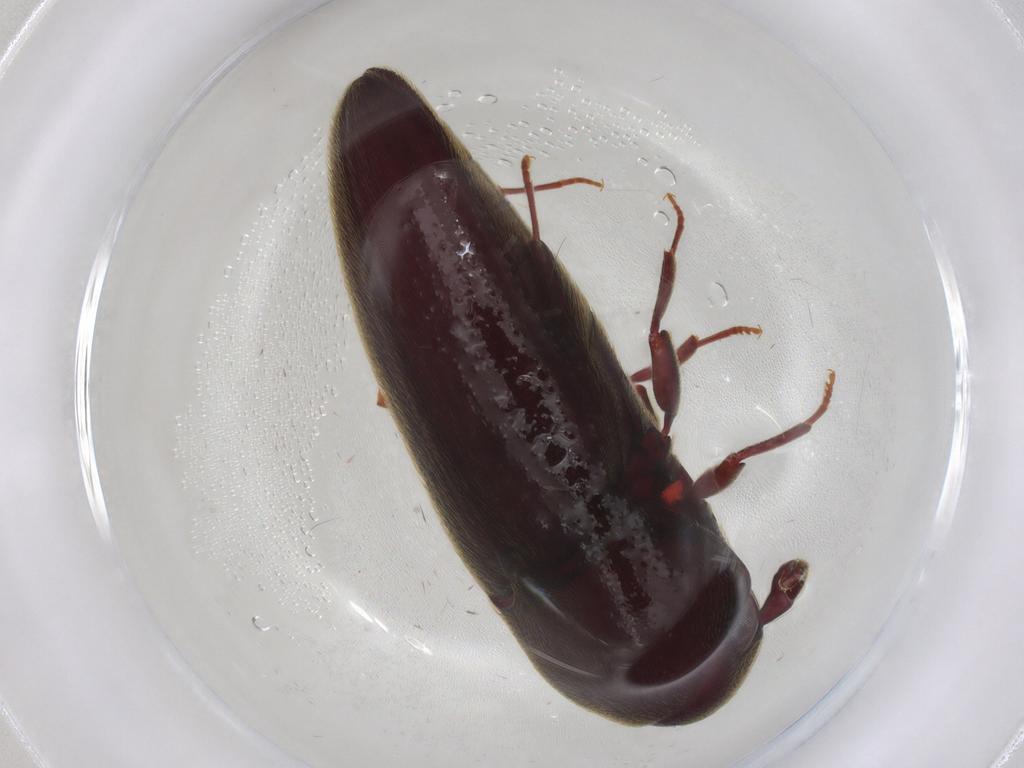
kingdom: Animalia
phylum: Arthropoda
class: Insecta
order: Coleoptera
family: Eucnemidae
